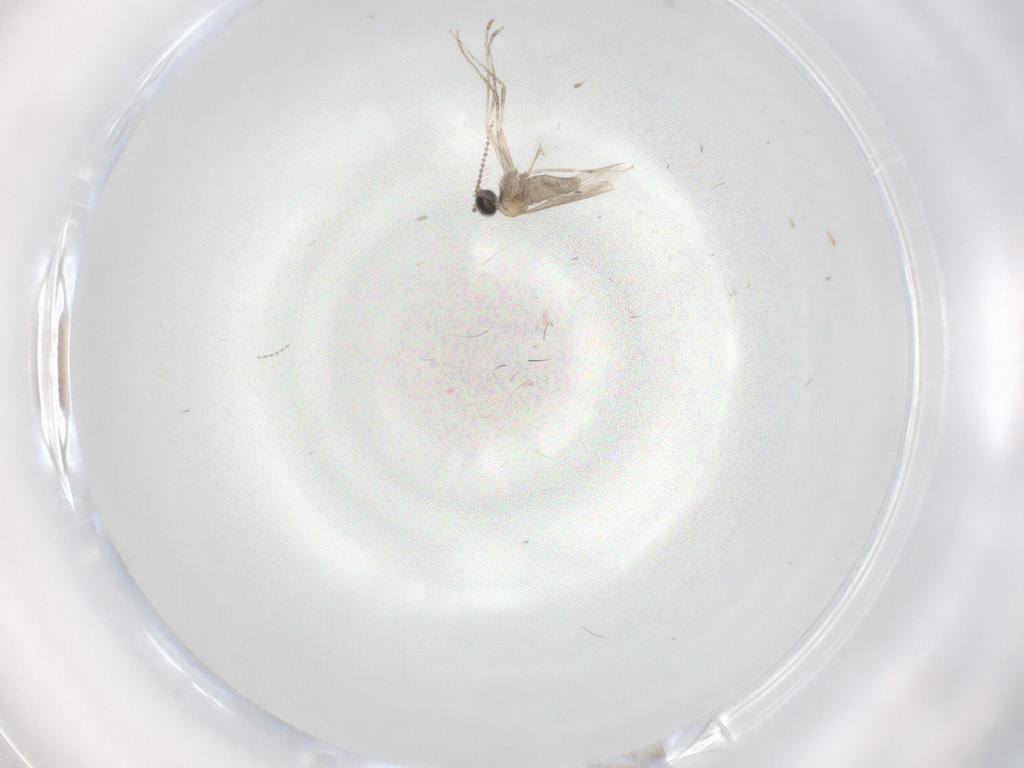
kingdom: Animalia
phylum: Arthropoda
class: Insecta
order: Diptera
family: Cecidomyiidae
